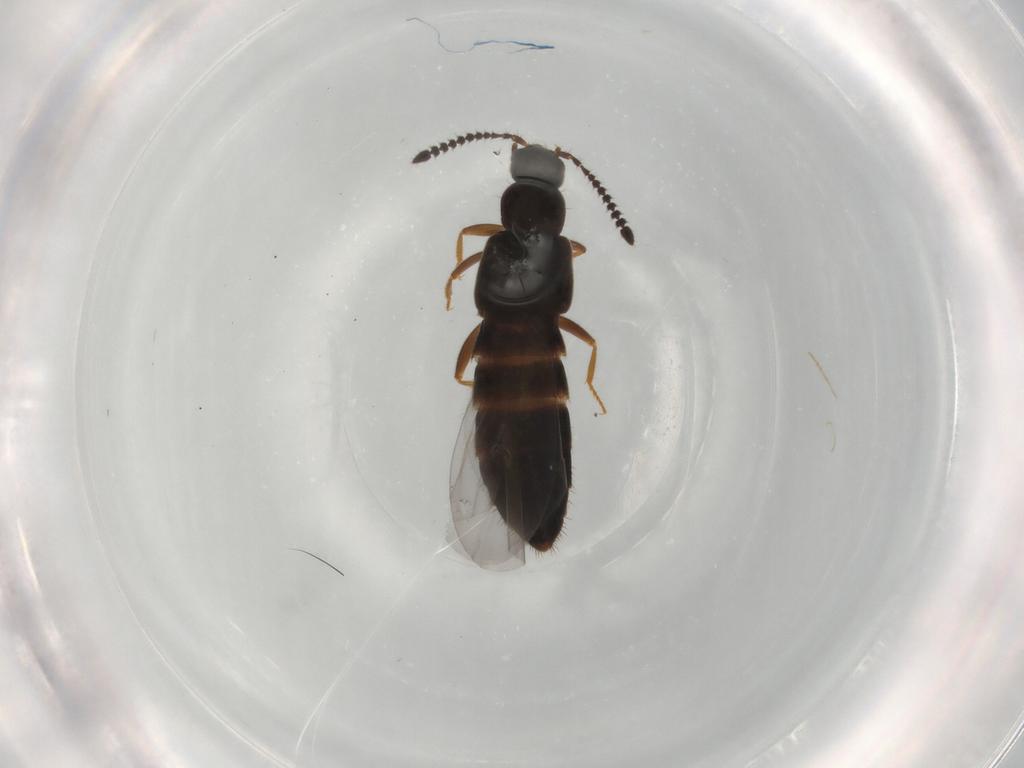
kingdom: Animalia
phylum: Arthropoda
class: Insecta
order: Coleoptera
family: Staphylinidae
